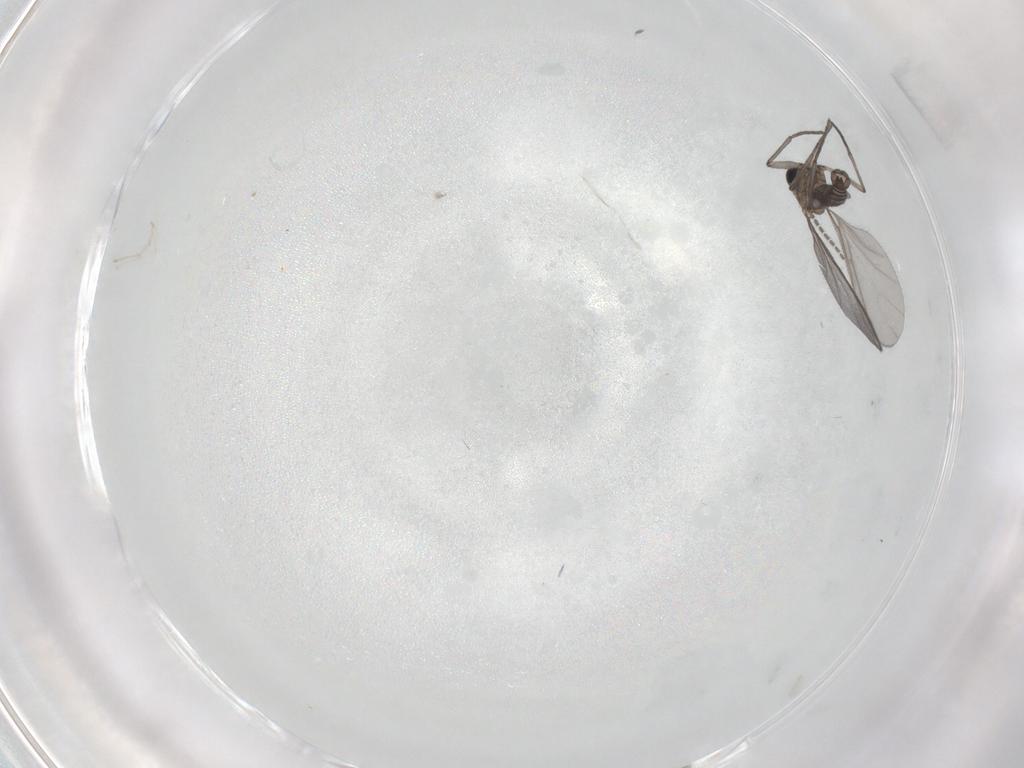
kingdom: Animalia
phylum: Arthropoda
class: Insecta
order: Diptera
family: Sciaridae
